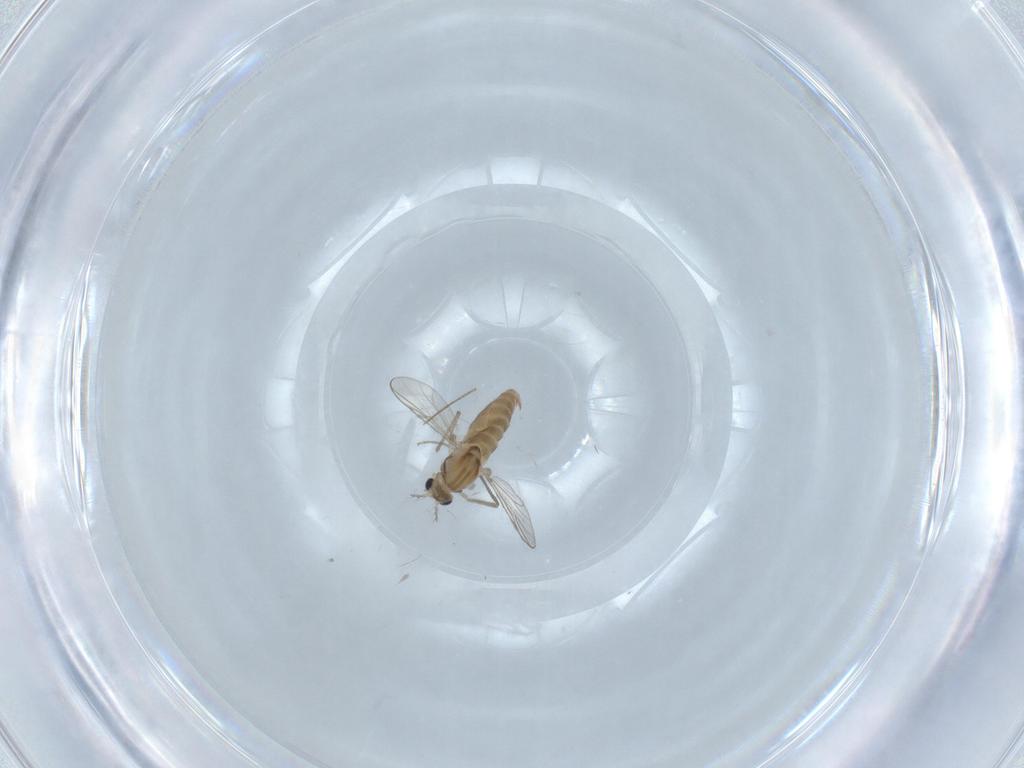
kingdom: Animalia
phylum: Arthropoda
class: Insecta
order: Diptera
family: Chironomidae
